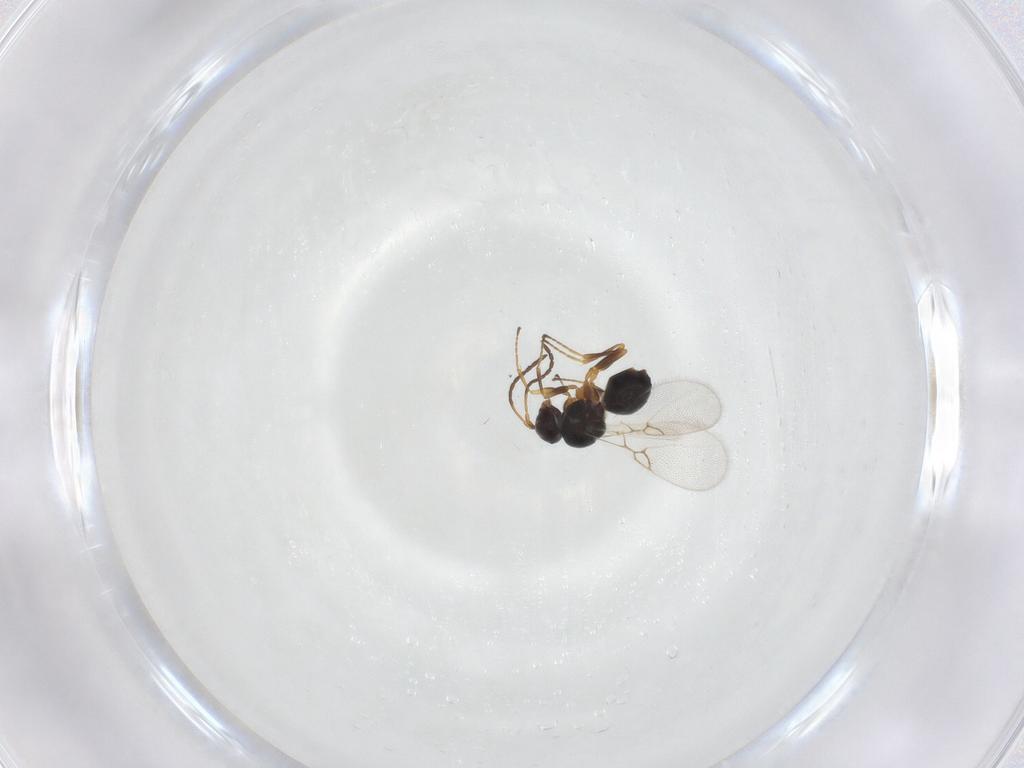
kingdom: Animalia
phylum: Arthropoda
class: Insecta
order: Hymenoptera
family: Figitidae
